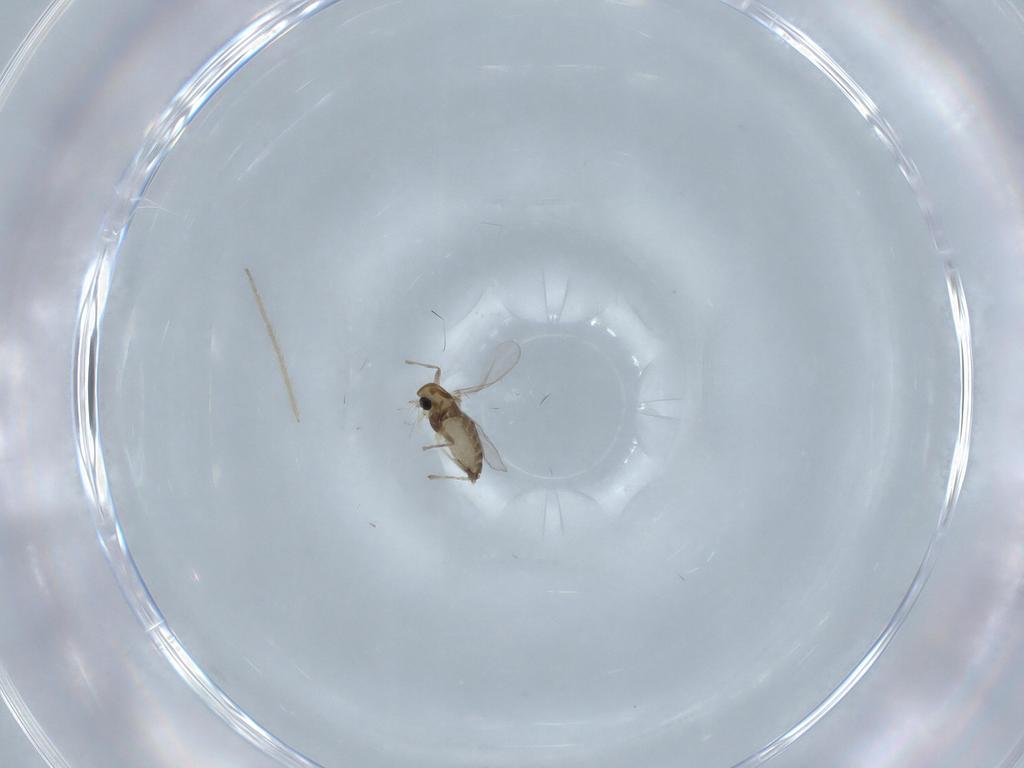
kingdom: Animalia
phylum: Arthropoda
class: Insecta
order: Diptera
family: Chironomidae
